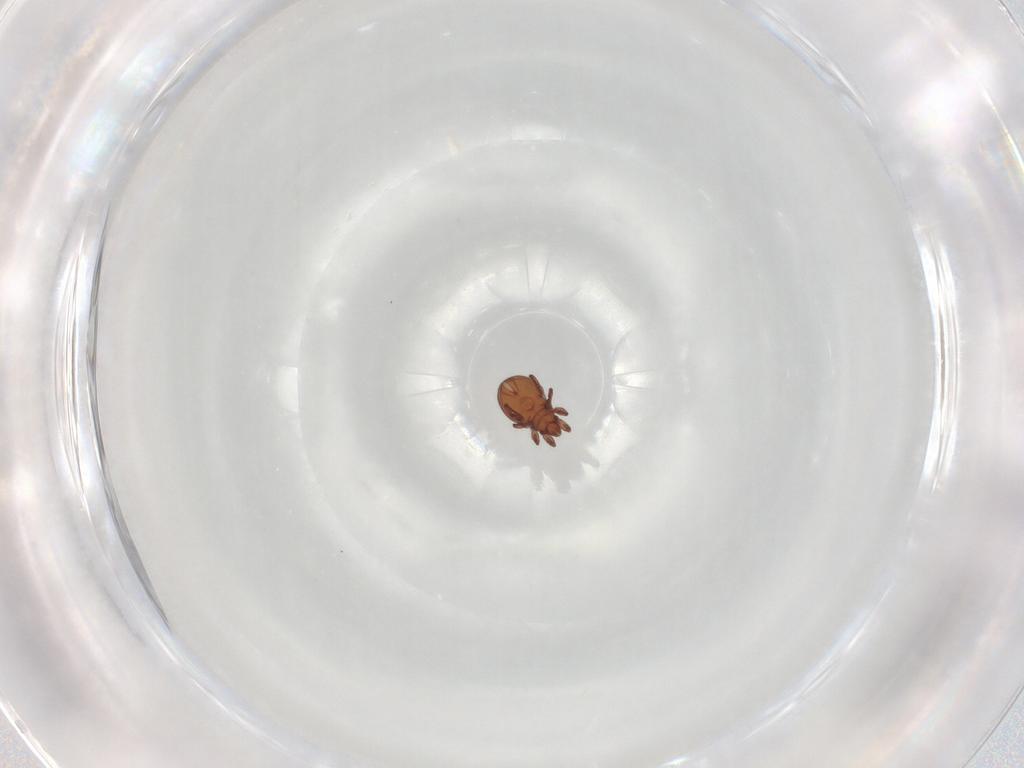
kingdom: Animalia
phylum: Arthropoda
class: Arachnida
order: Sarcoptiformes
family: Eremaeidae
